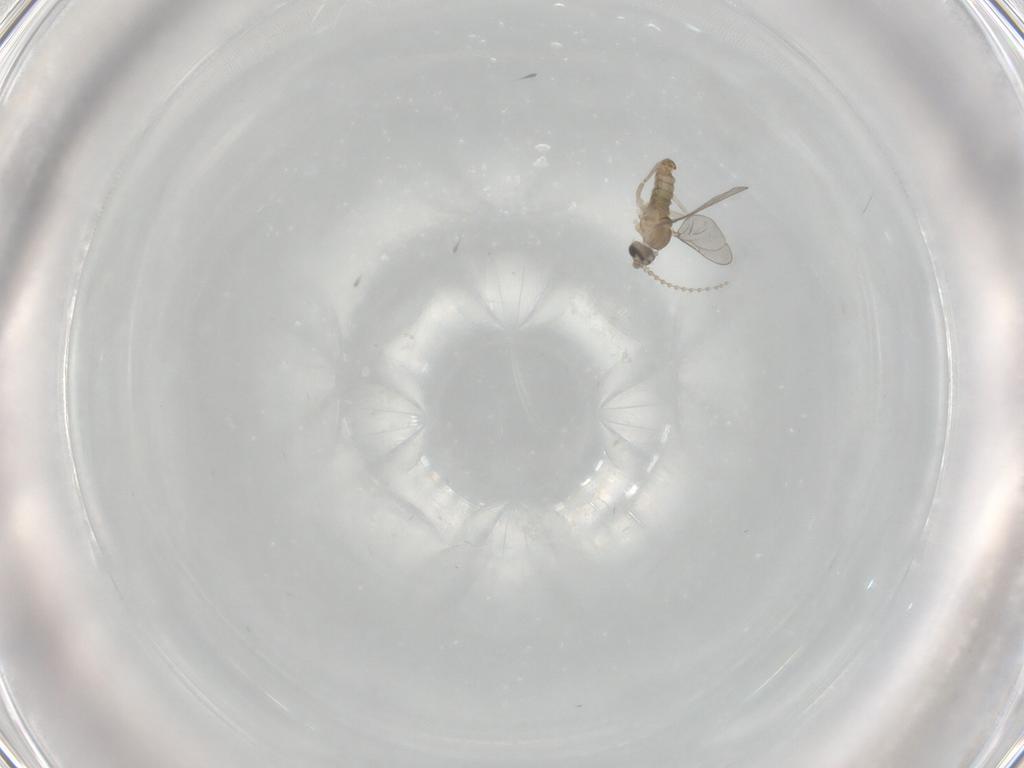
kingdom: Animalia
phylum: Arthropoda
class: Insecta
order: Diptera
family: Cecidomyiidae
